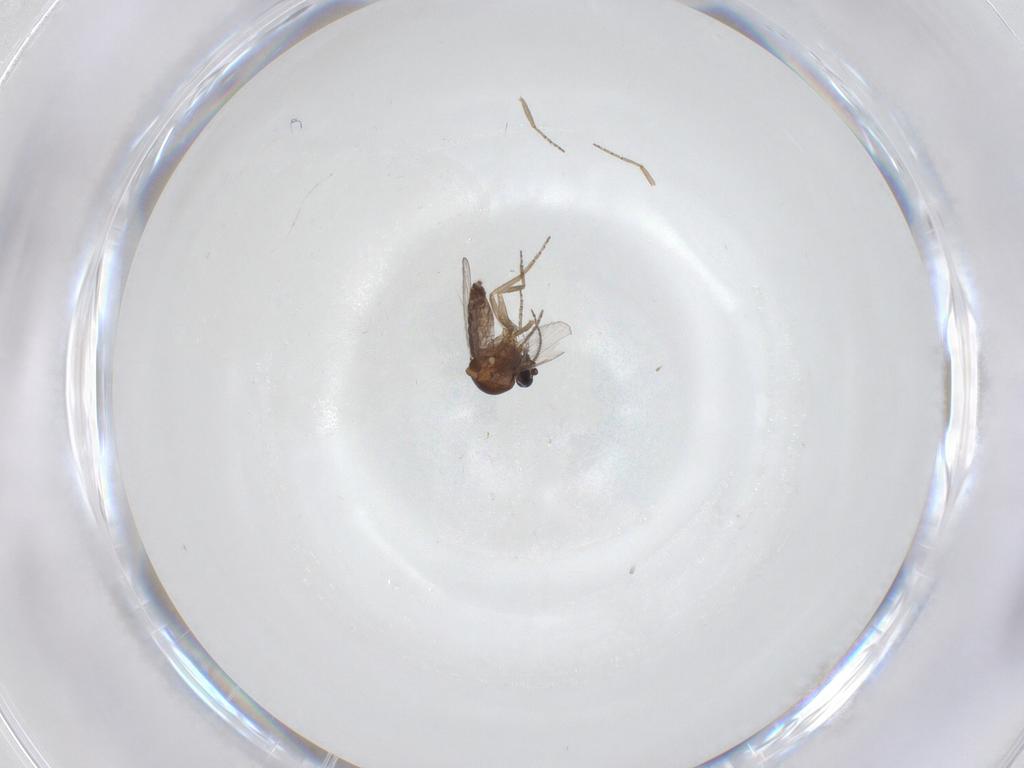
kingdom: Animalia
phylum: Arthropoda
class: Insecta
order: Diptera
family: Ceratopogonidae
